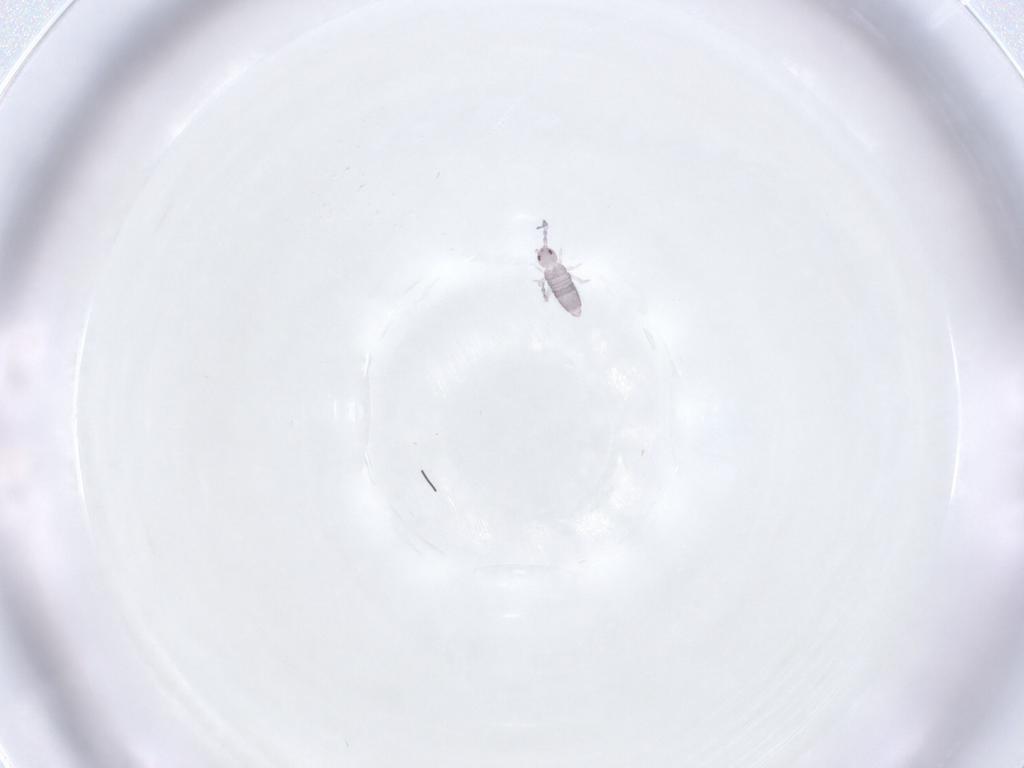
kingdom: Animalia
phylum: Arthropoda
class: Collembola
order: Entomobryomorpha
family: Entomobryidae
